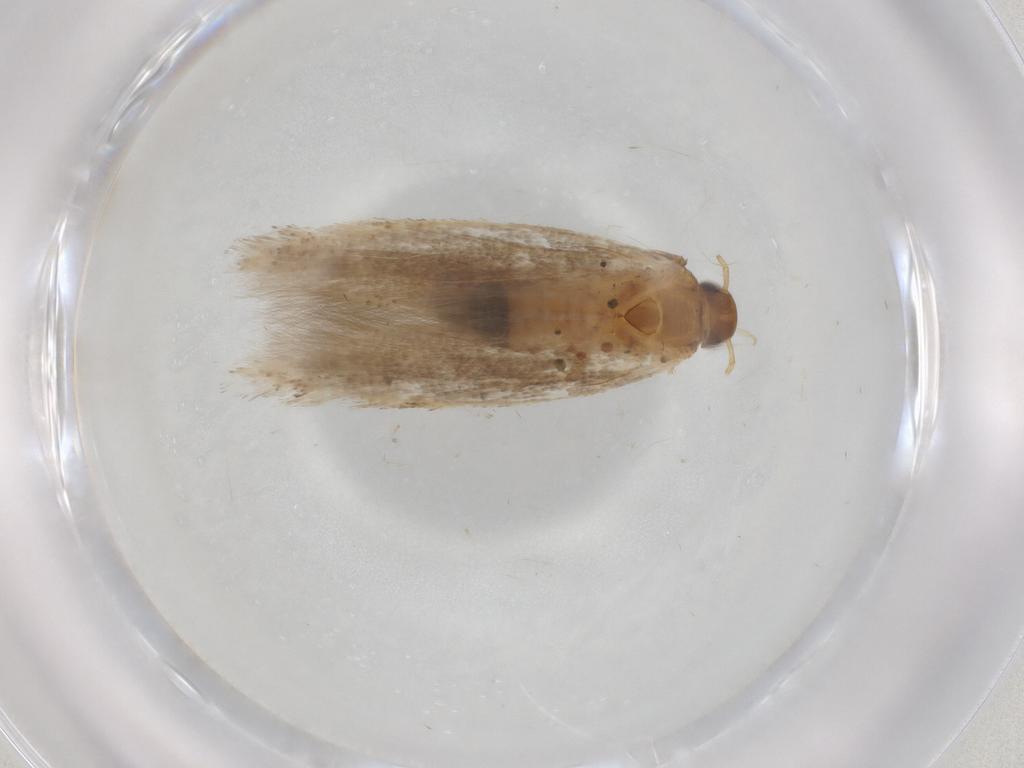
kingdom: Animalia
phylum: Arthropoda
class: Insecta
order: Lepidoptera
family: Gelechiidae
